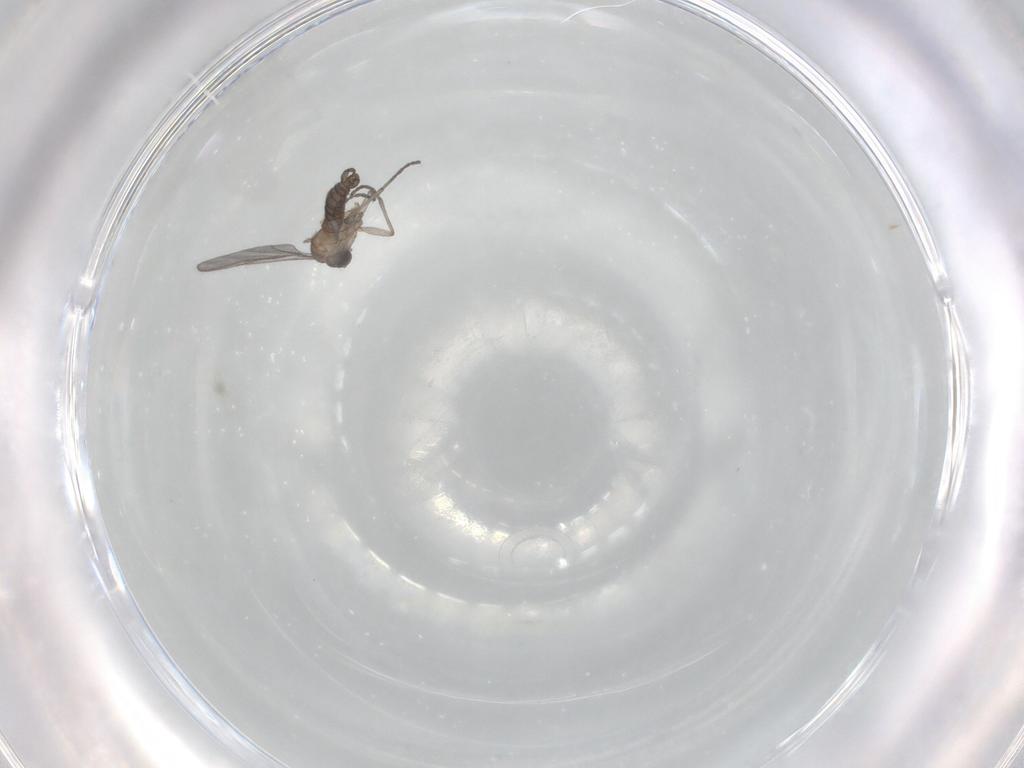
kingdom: Animalia
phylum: Arthropoda
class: Insecta
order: Diptera
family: Sciaridae
